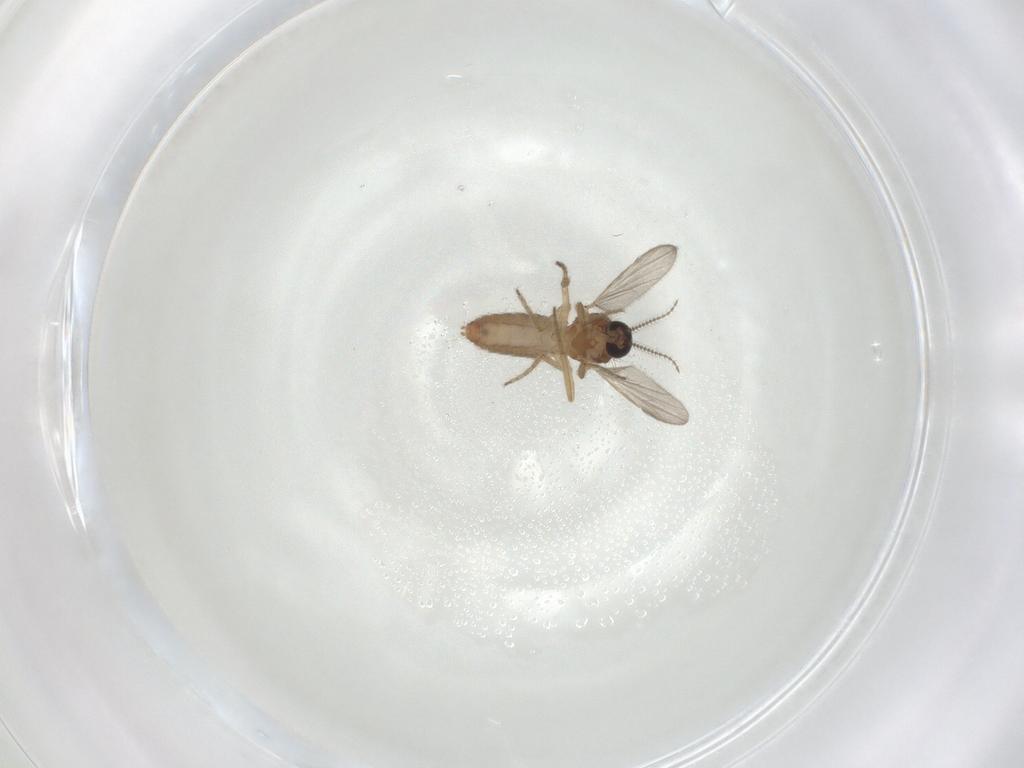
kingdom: Animalia
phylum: Arthropoda
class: Insecta
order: Diptera
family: Ceratopogonidae
